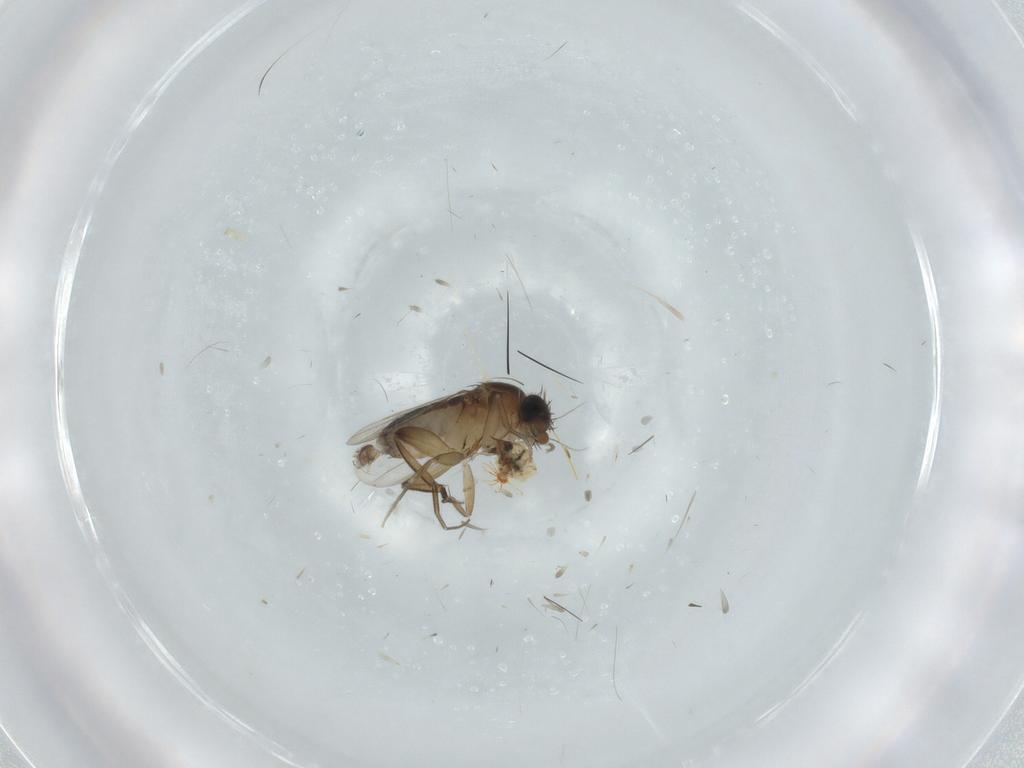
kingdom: Animalia
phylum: Arthropoda
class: Insecta
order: Diptera
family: Phoridae
